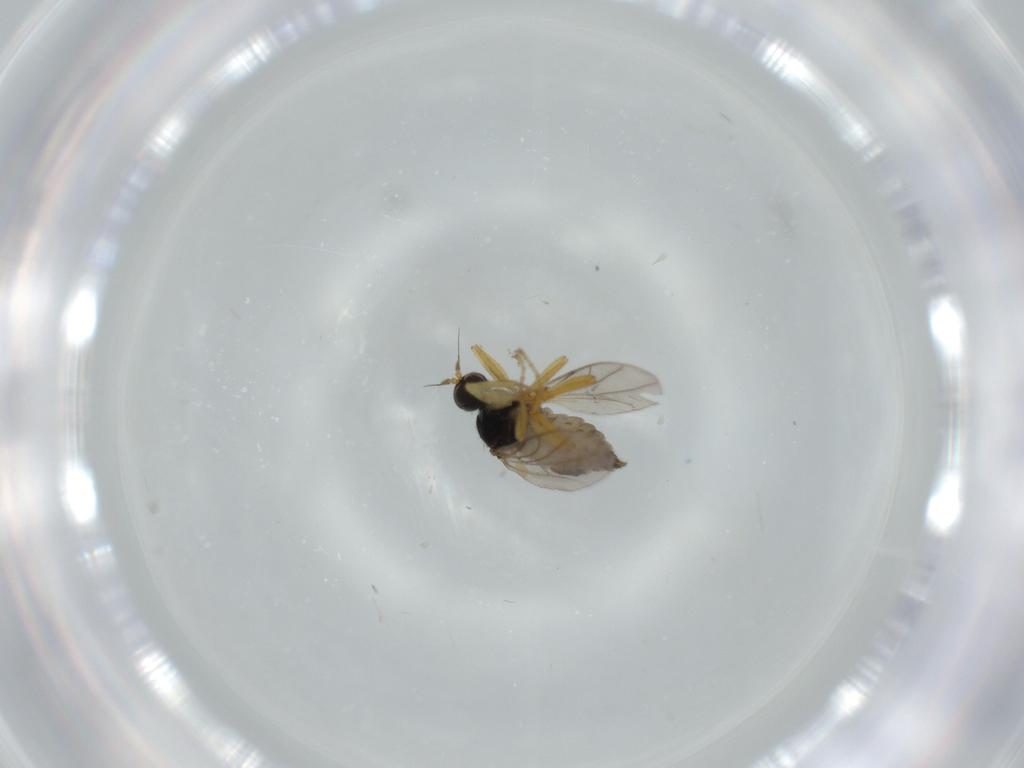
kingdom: Animalia
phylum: Arthropoda
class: Insecta
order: Diptera
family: Hybotidae
